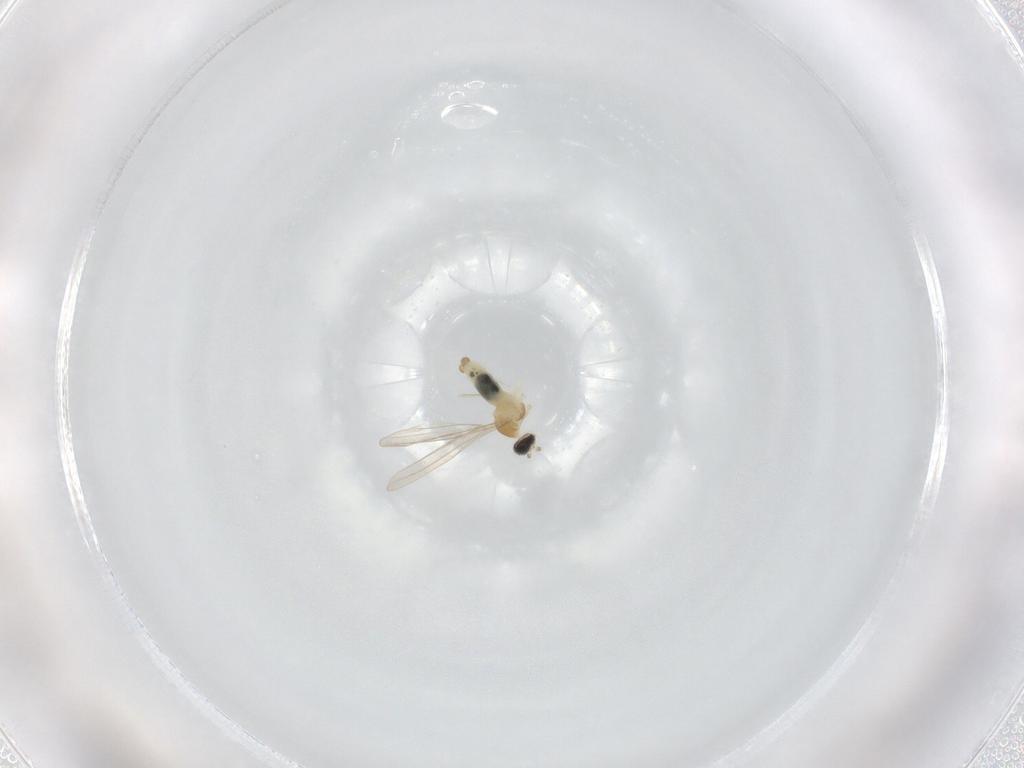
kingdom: Animalia
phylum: Arthropoda
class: Insecta
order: Diptera
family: Cecidomyiidae
